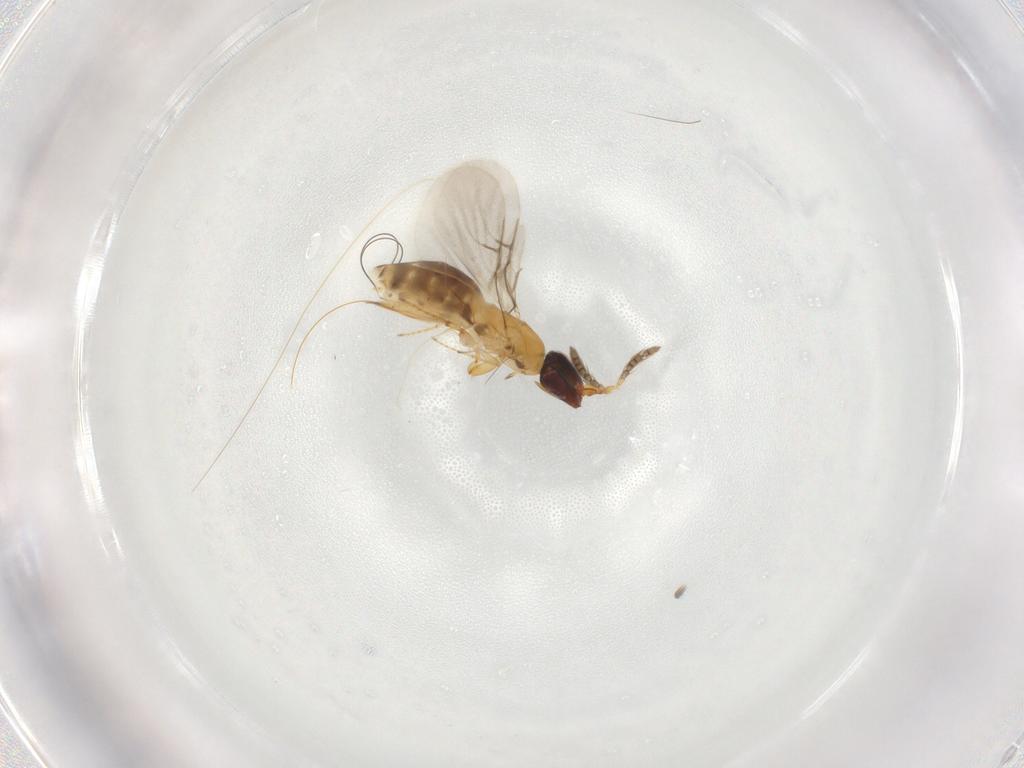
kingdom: Animalia
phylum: Arthropoda
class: Insecta
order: Hymenoptera
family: Agaonidae
